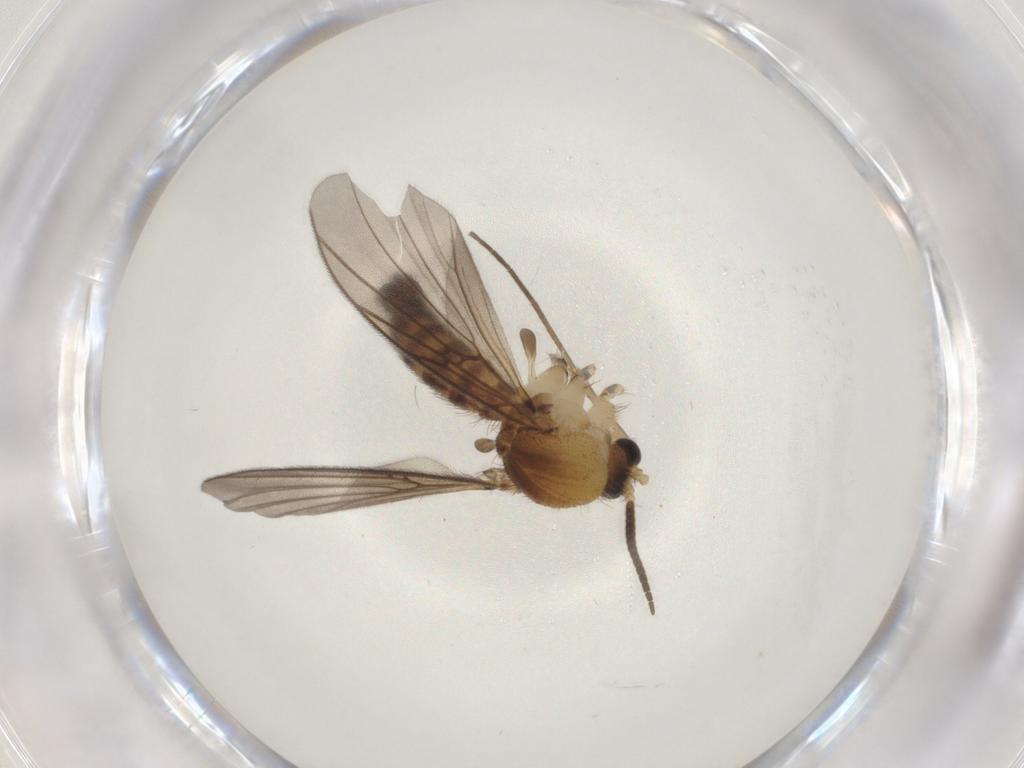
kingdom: Animalia
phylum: Arthropoda
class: Insecta
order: Diptera
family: Mycetophilidae
